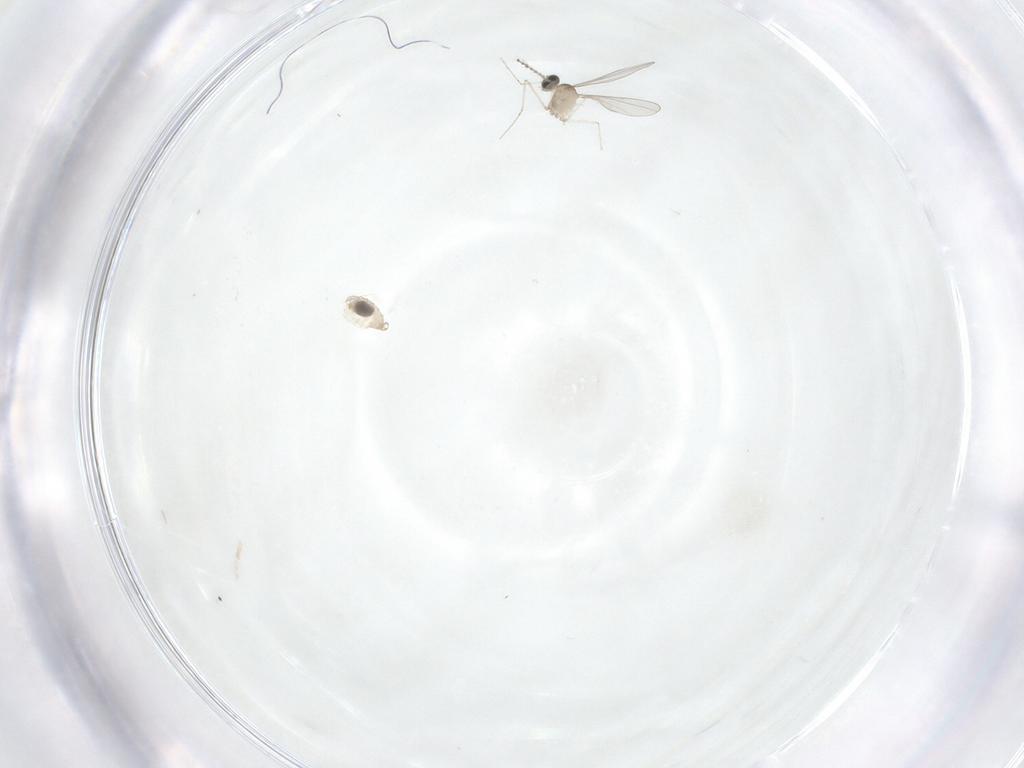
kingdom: Animalia
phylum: Arthropoda
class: Insecta
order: Diptera
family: Cecidomyiidae
